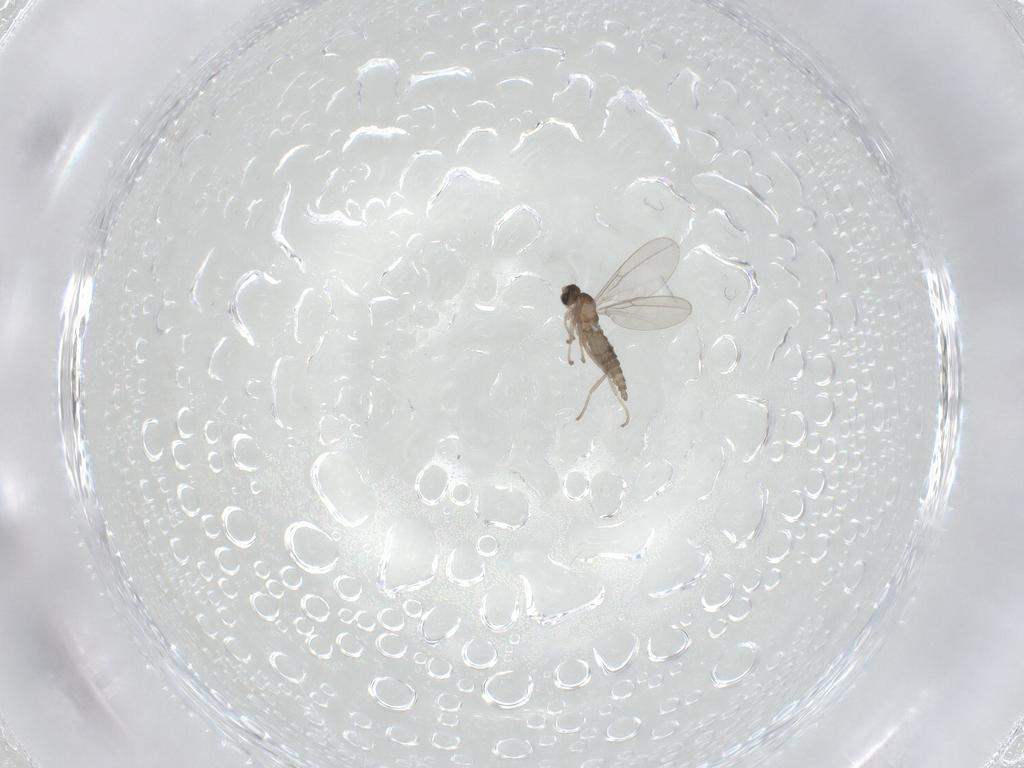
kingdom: Animalia
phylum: Arthropoda
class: Insecta
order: Diptera
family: Cecidomyiidae
